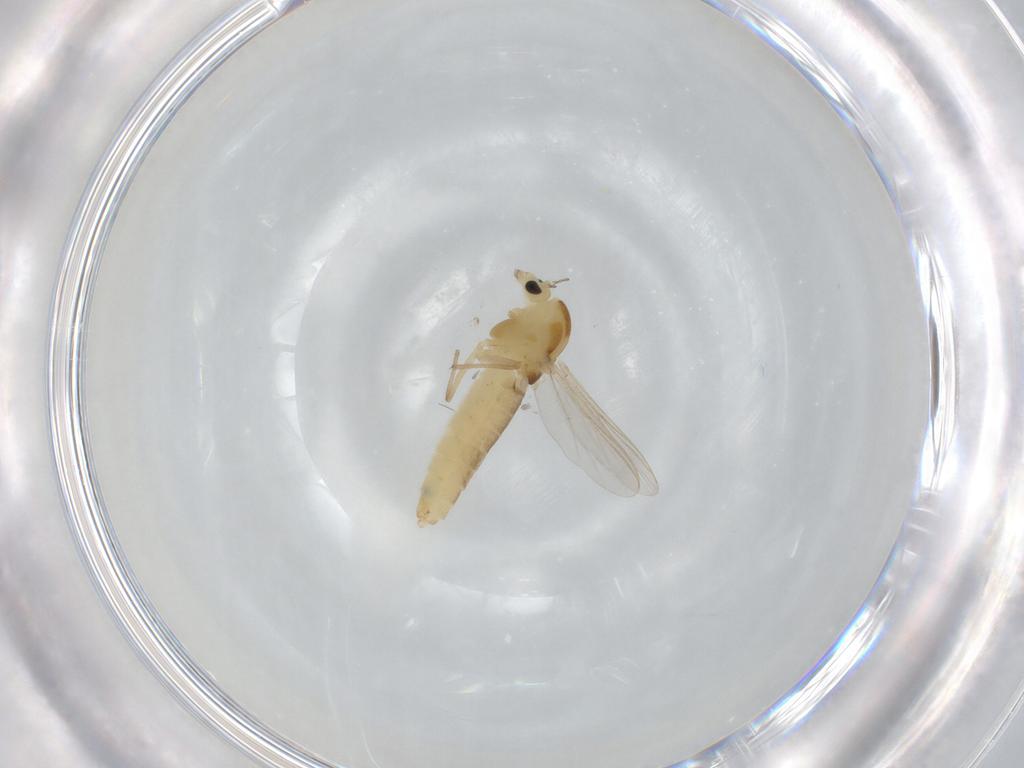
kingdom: Animalia
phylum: Arthropoda
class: Insecta
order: Diptera
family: Chironomidae
